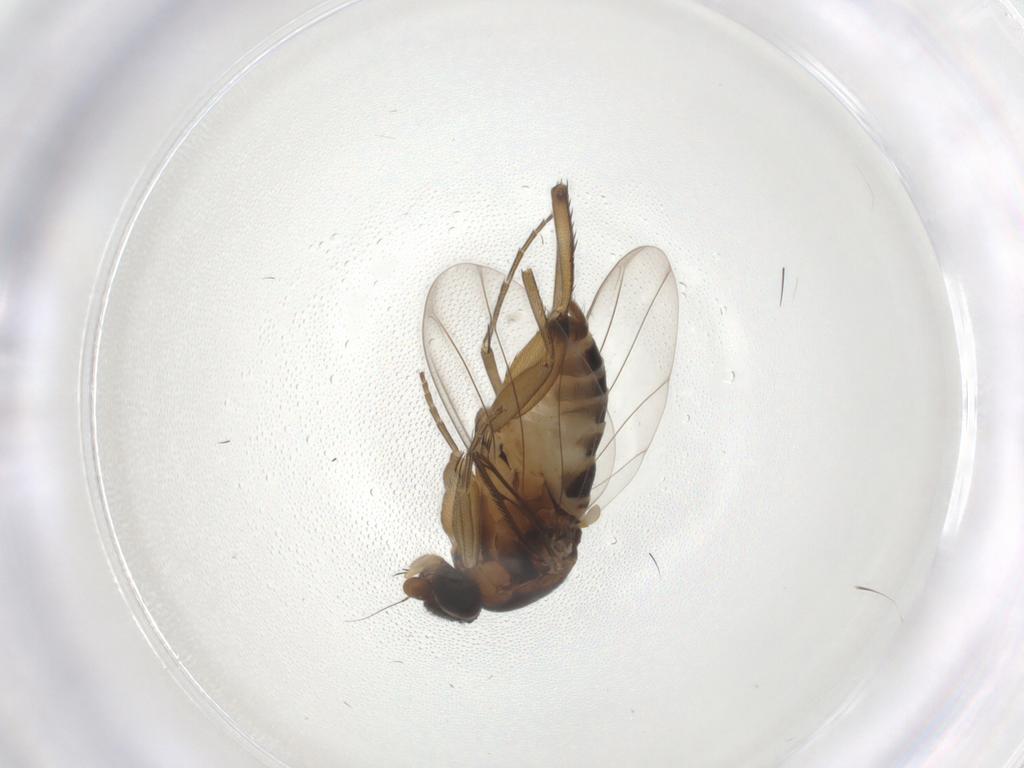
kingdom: Animalia
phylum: Arthropoda
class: Insecta
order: Diptera
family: Phoridae
